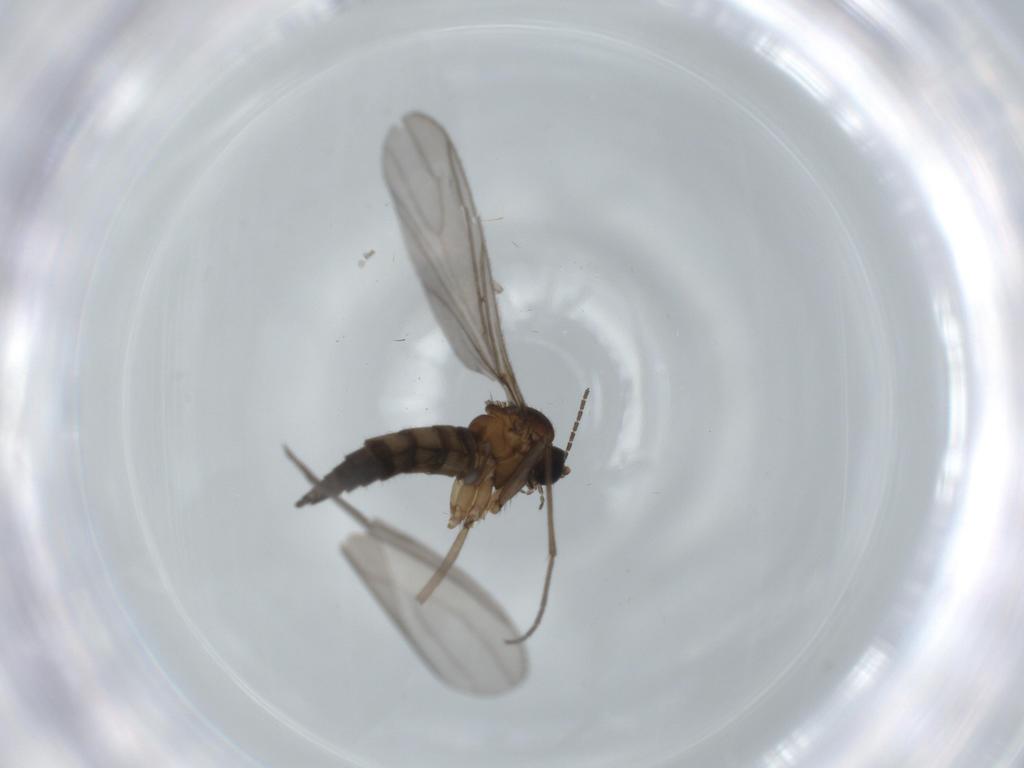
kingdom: Animalia
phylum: Arthropoda
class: Insecta
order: Diptera
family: Sciaridae
